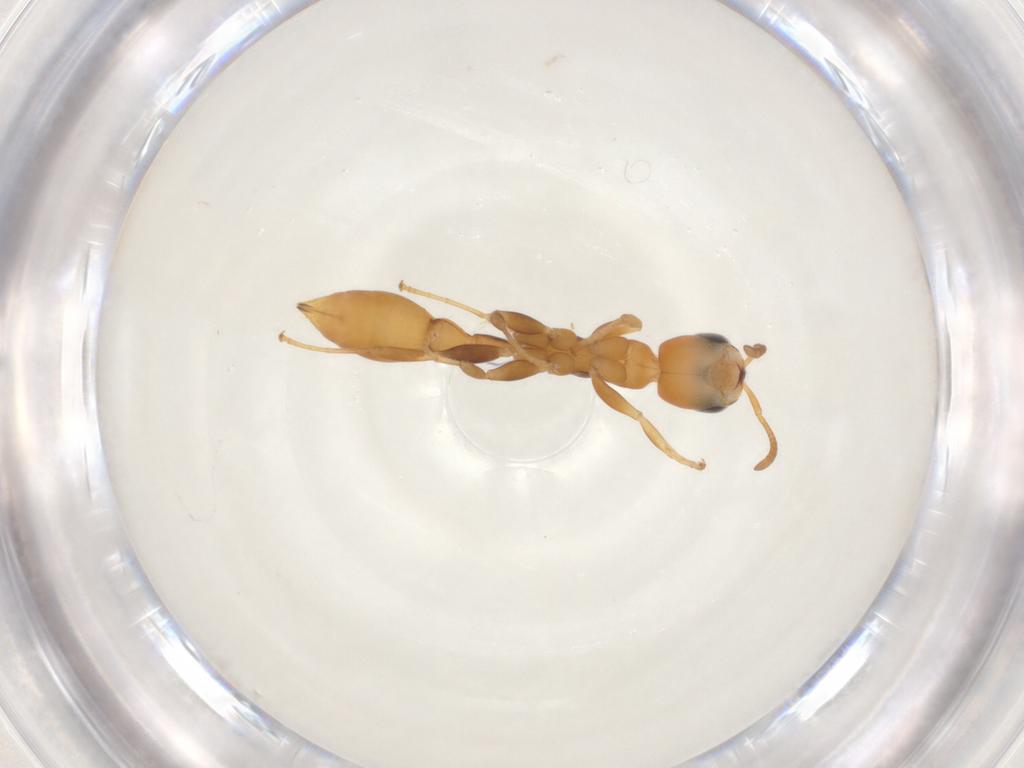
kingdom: Animalia
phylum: Arthropoda
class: Insecta
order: Hymenoptera
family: Formicidae
